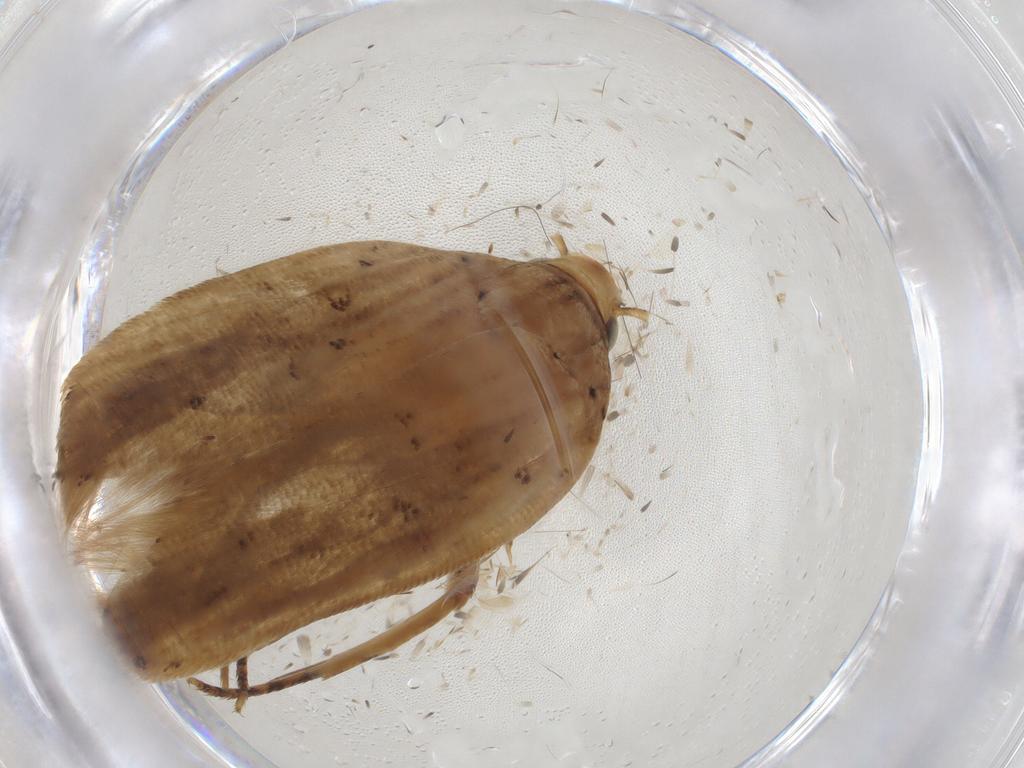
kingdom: Animalia
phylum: Arthropoda
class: Insecta
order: Lepidoptera
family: Gelechiidae
